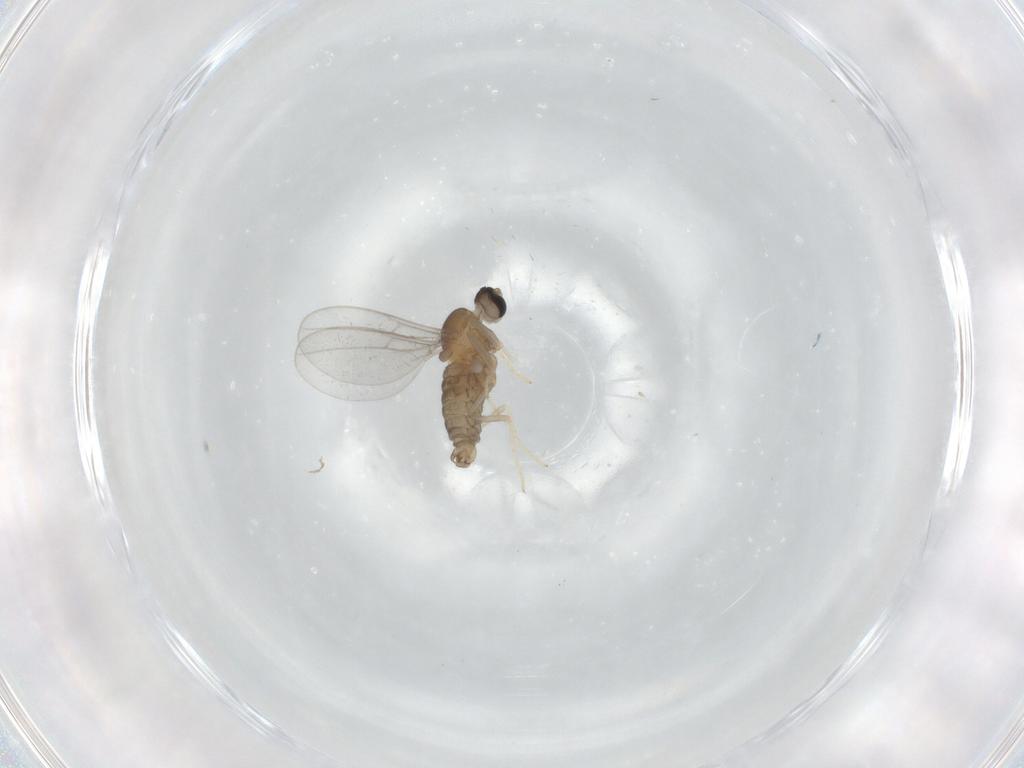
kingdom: Animalia
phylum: Arthropoda
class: Insecta
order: Diptera
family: Cecidomyiidae
